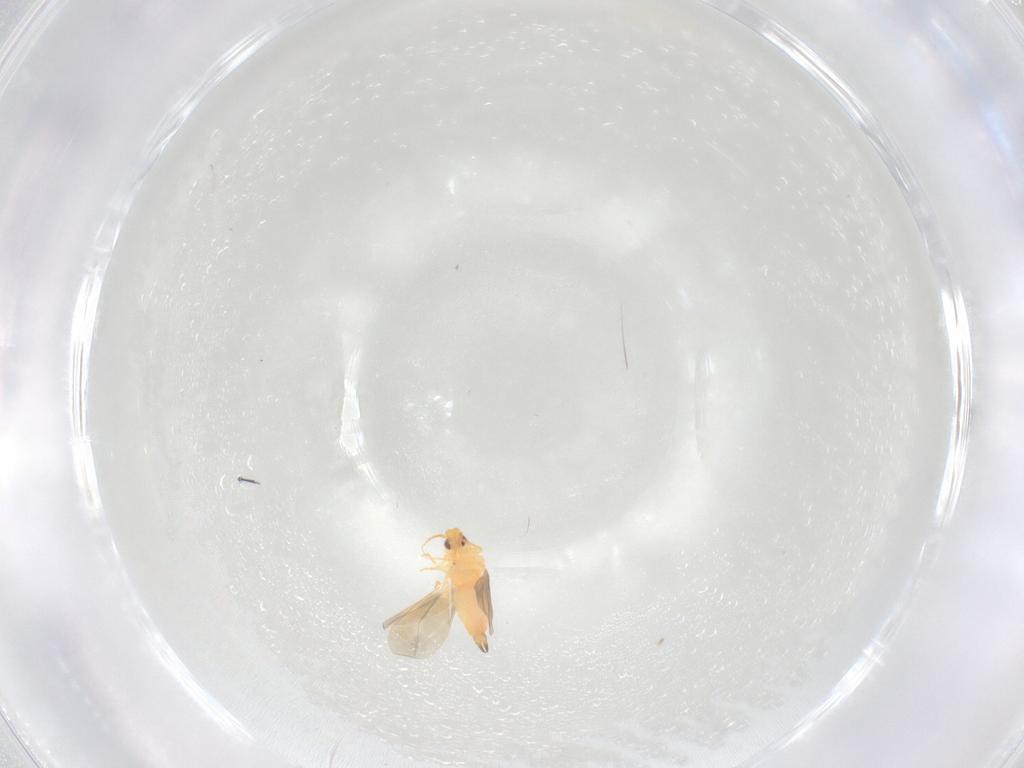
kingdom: Animalia
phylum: Arthropoda
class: Insecta
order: Hemiptera
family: Aleyrodidae
